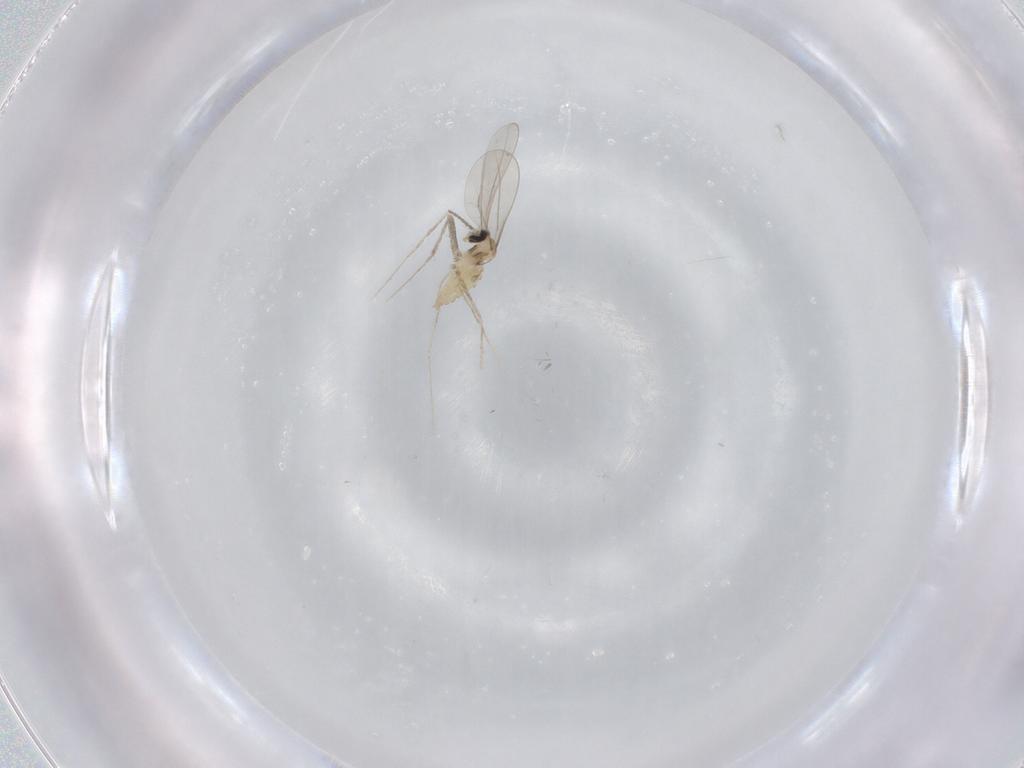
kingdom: Animalia
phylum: Arthropoda
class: Insecta
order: Diptera
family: Cecidomyiidae
